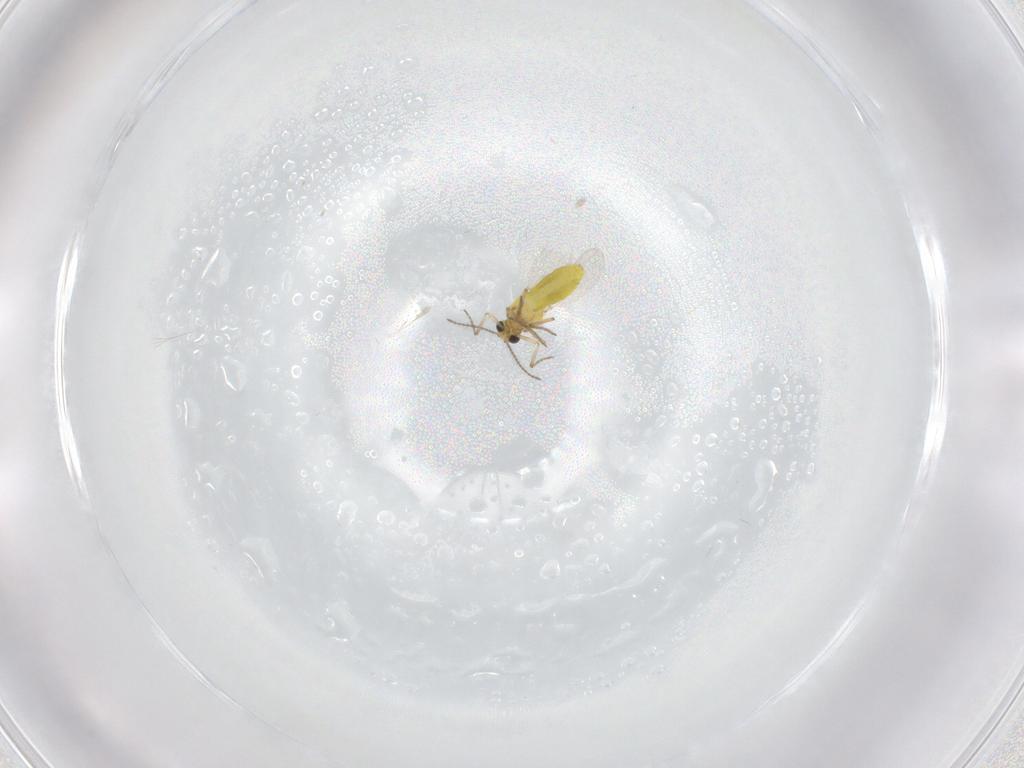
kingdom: Animalia
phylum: Arthropoda
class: Insecta
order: Diptera
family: Ceratopogonidae
